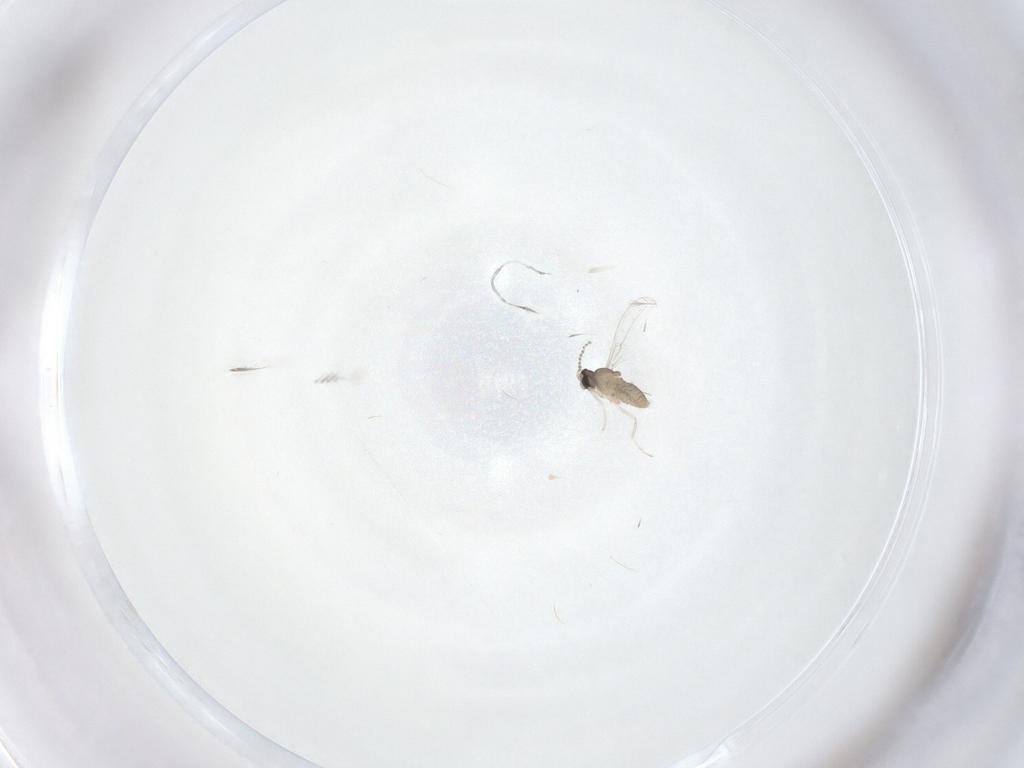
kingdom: Animalia
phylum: Arthropoda
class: Insecta
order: Diptera
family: Cecidomyiidae
